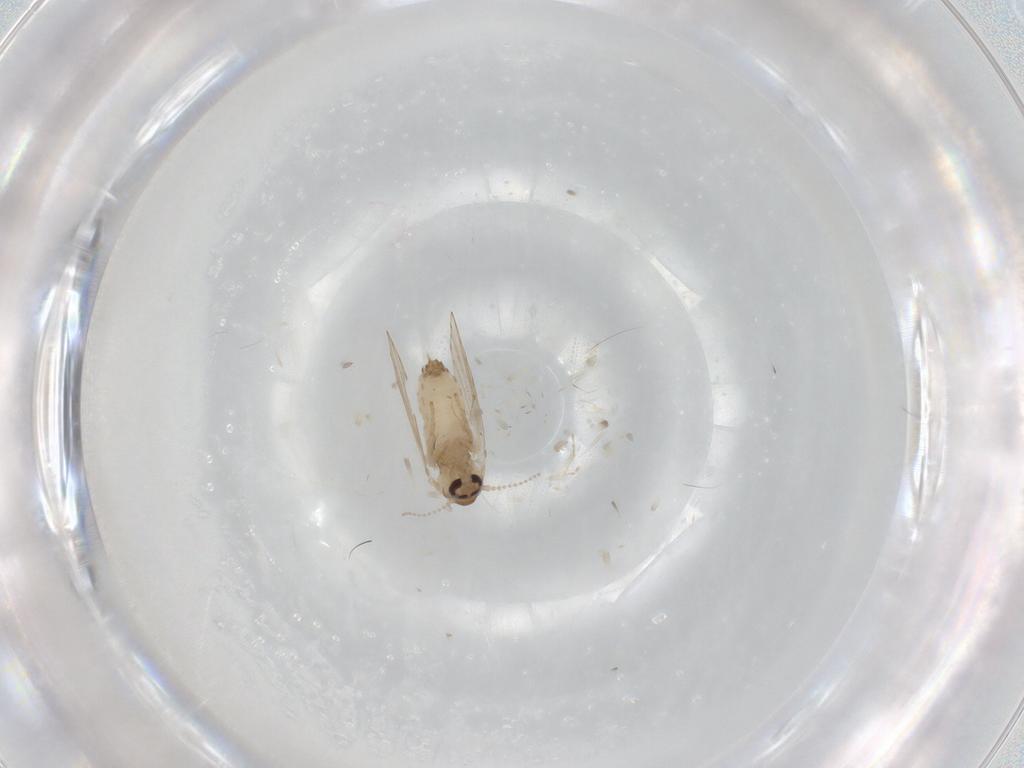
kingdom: Animalia
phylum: Arthropoda
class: Insecta
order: Diptera
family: Psychodidae
